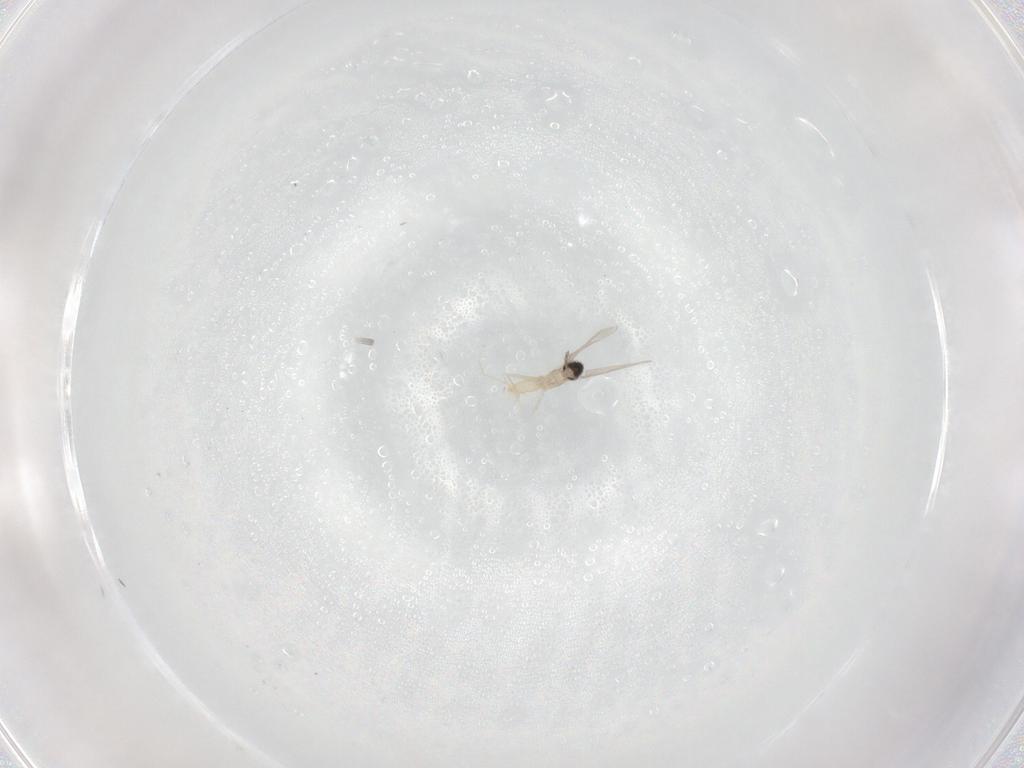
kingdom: Animalia
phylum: Arthropoda
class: Insecta
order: Diptera
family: Cecidomyiidae
